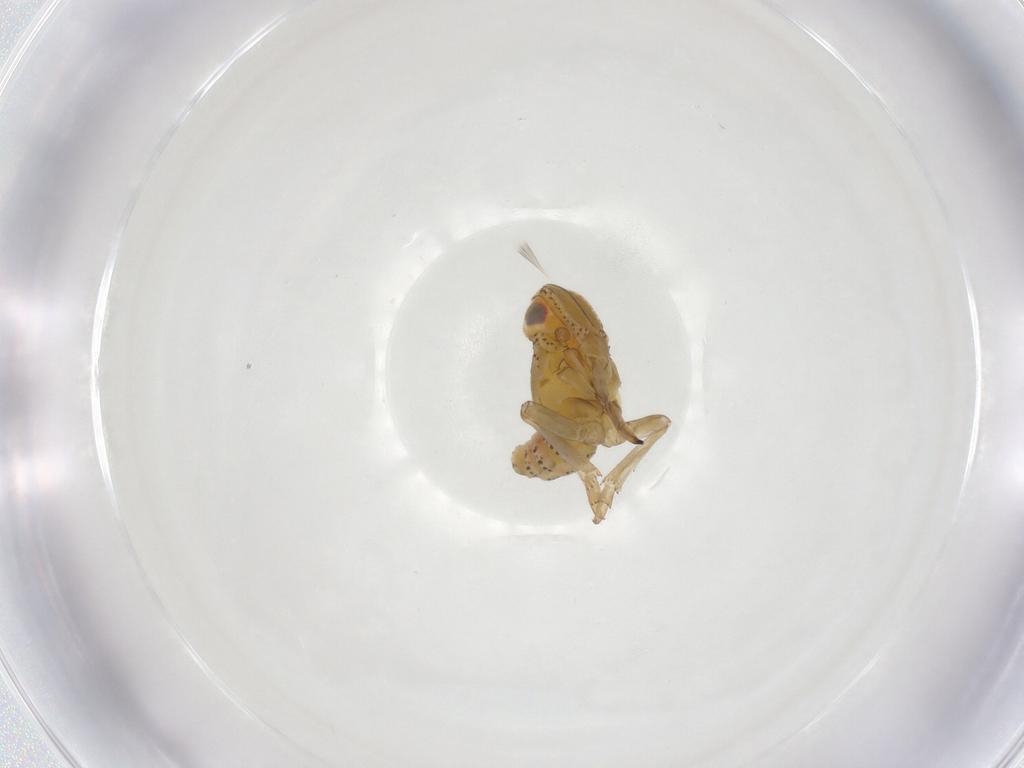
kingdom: Animalia
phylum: Arthropoda
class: Insecta
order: Hemiptera
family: Tropiduchidae
